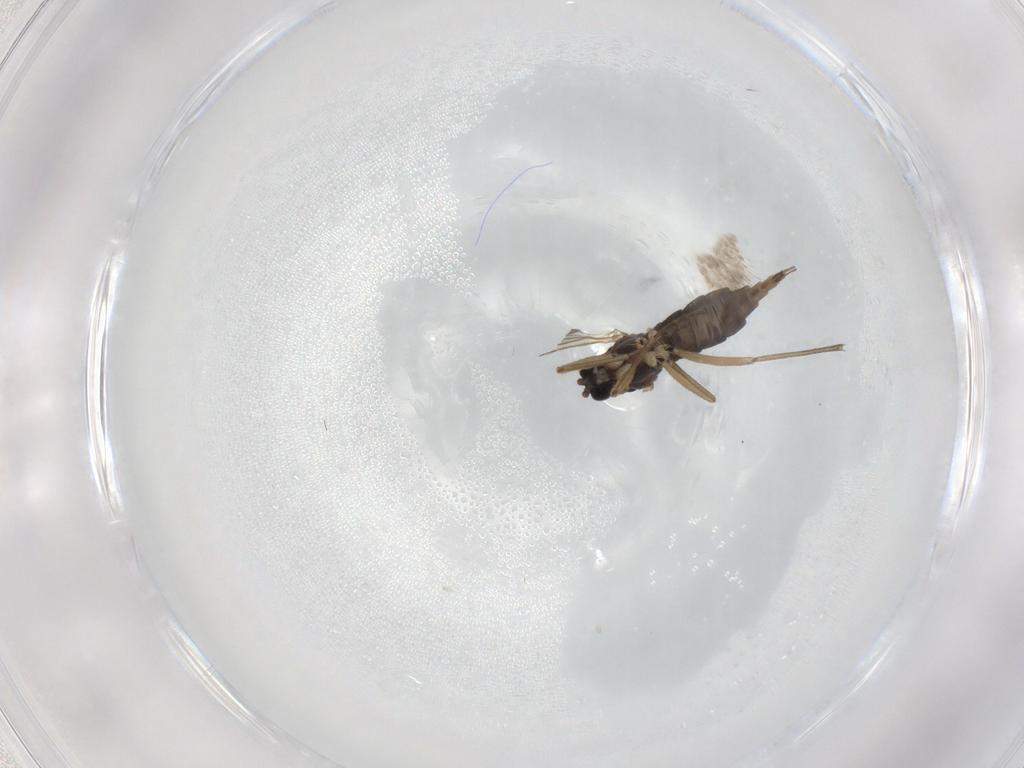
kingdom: Animalia
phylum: Arthropoda
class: Insecta
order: Diptera
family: Sciaridae
